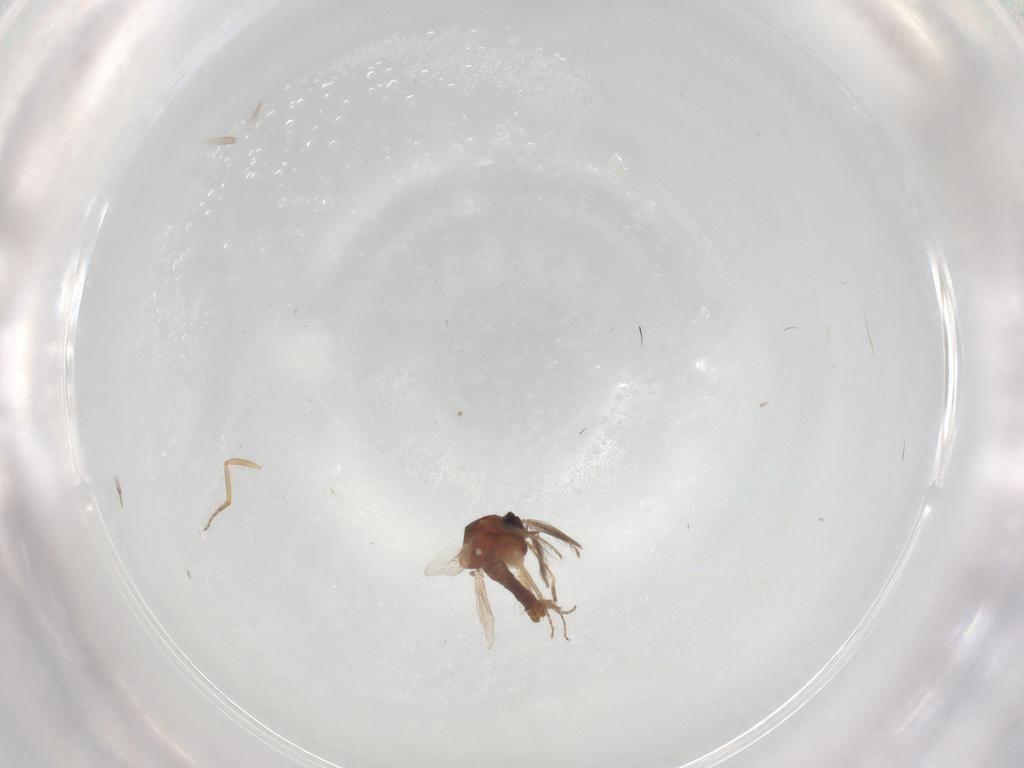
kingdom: Animalia
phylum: Arthropoda
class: Insecta
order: Diptera
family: Ceratopogonidae
